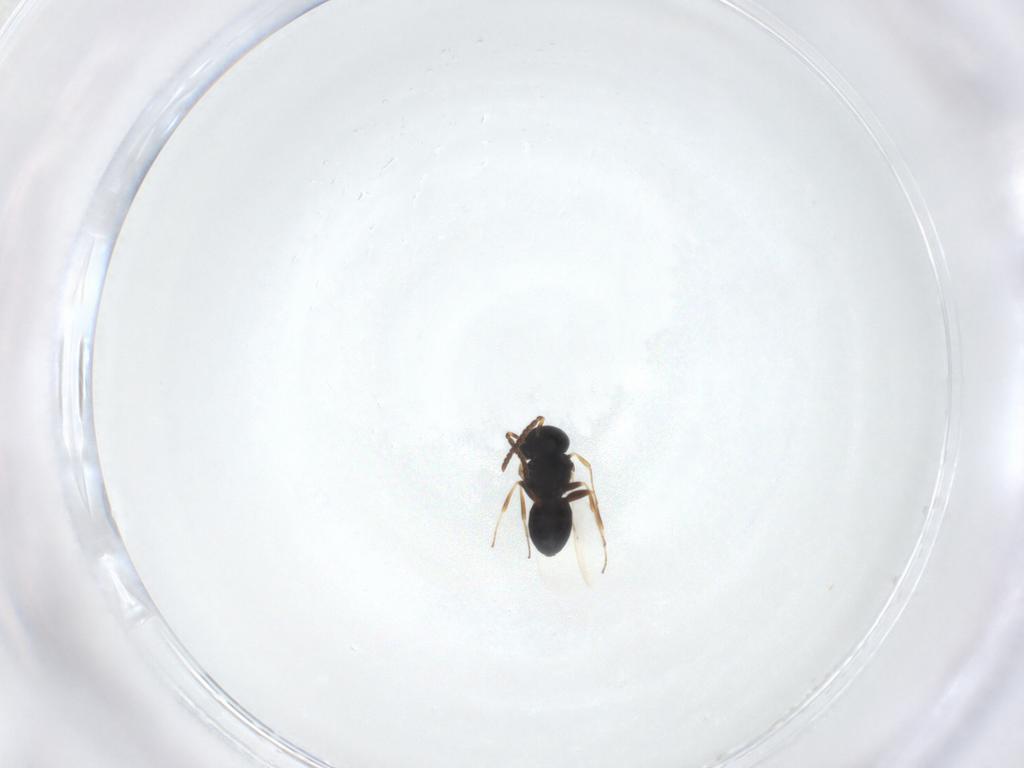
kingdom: Animalia
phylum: Arthropoda
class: Insecta
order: Hymenoptera
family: Scelionidae
